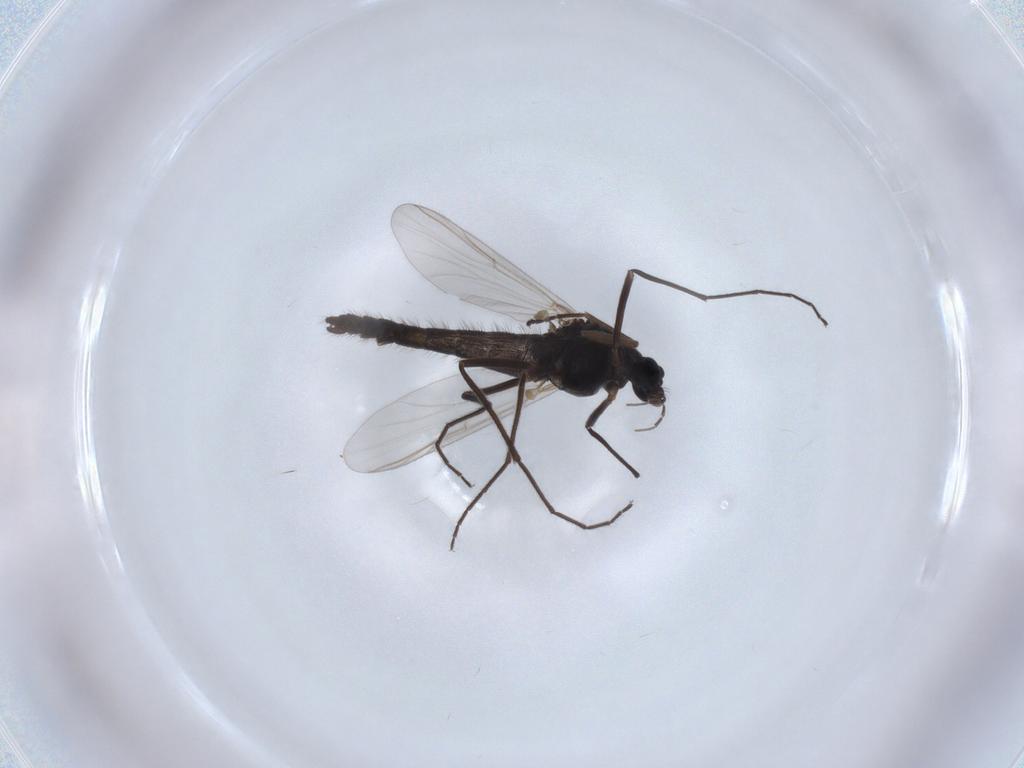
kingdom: Animalia
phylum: Arthropoda
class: Insecta
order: Diptera
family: Chironomidae
